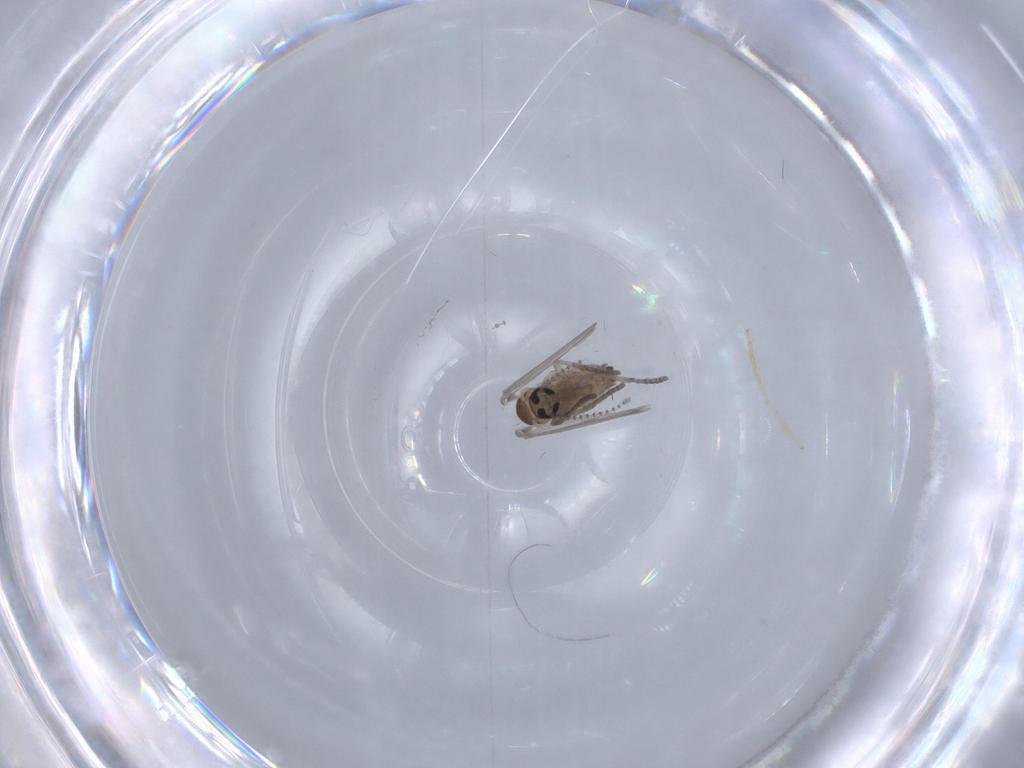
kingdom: Animalia
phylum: Arthropoda
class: Insecta
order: Diptera
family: Psychodidae
